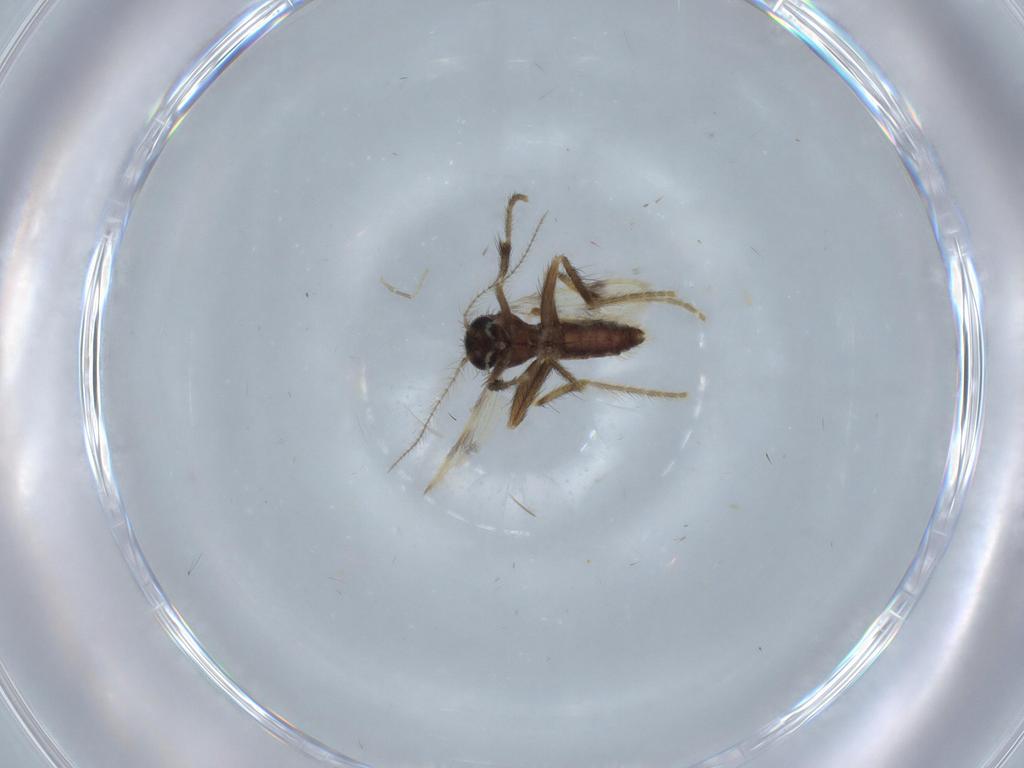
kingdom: Animalia
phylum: Arthropoda
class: Insecta
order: Diptera
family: Corethrellidae
